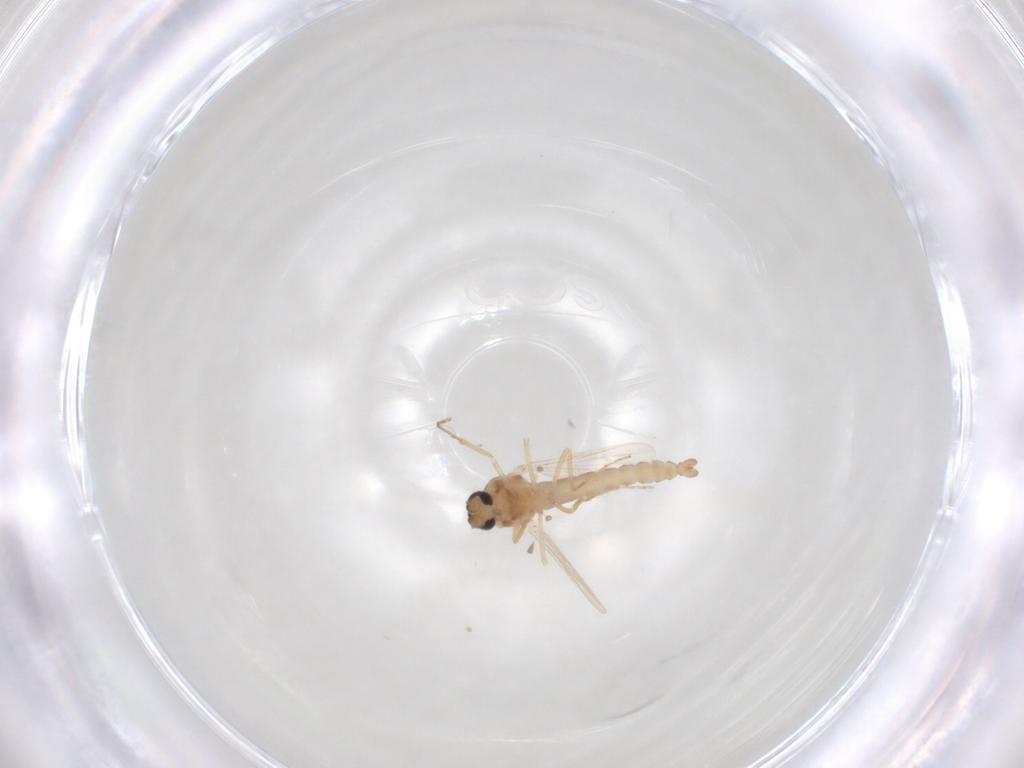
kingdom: Animalia
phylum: Arthropoda
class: Insecta
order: Diptera
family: Ceratopogonidae
